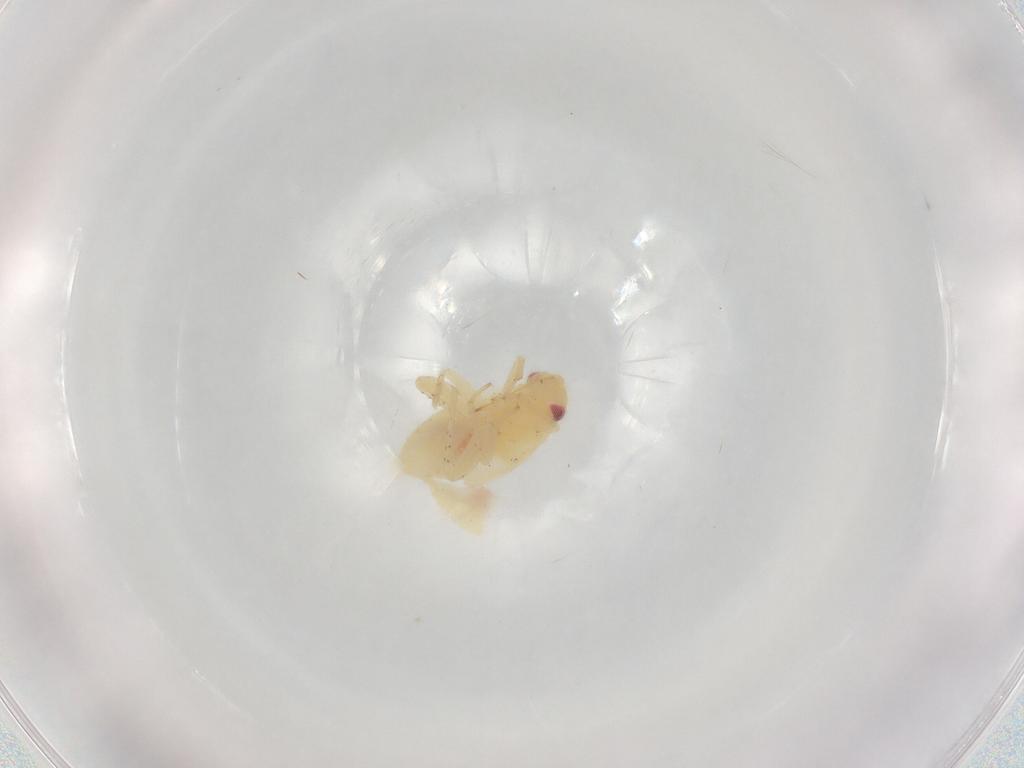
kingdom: Animalia
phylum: Arthropoda
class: Insecta
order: Hemiptera
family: Miridae
